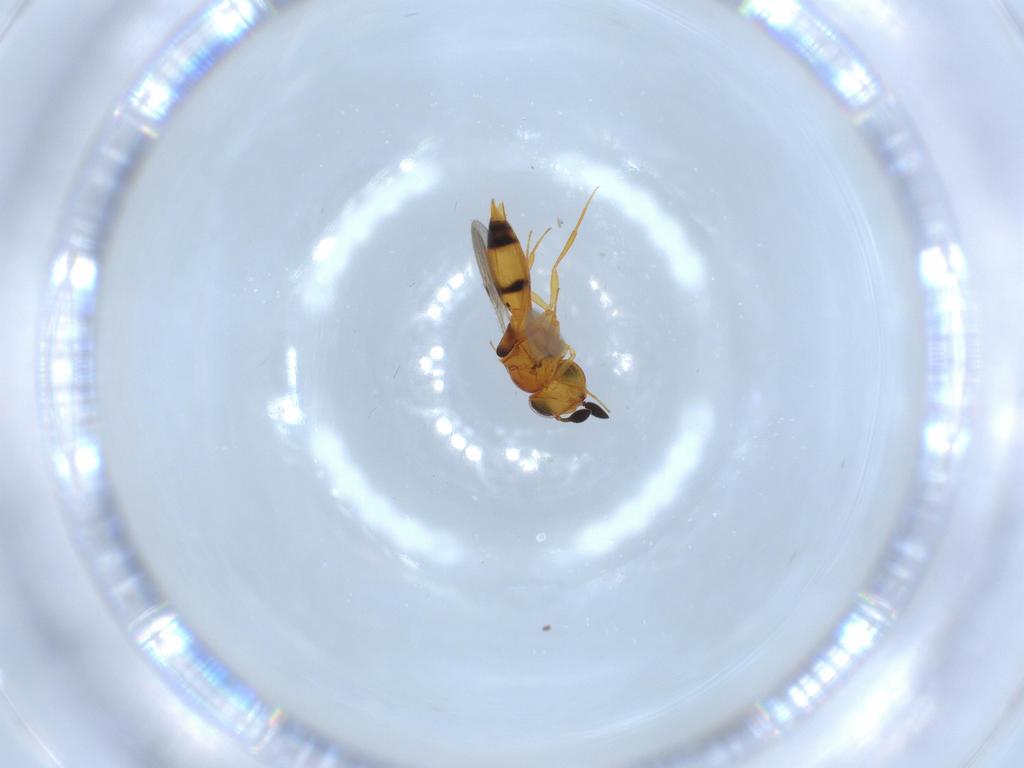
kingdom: Animalia
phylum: Arthropoda
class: Insecta
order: Hymenoptera
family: Scelionidae
